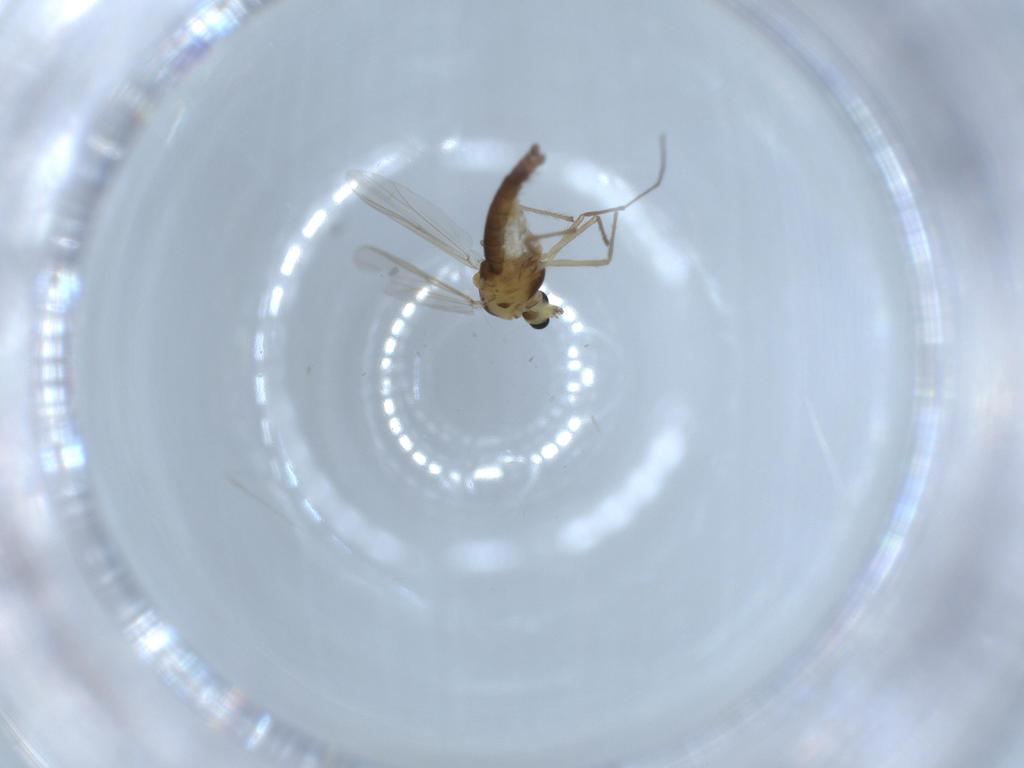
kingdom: Animalia
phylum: Arthropoda
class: Insecta
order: Diptera
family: Chironomidae
